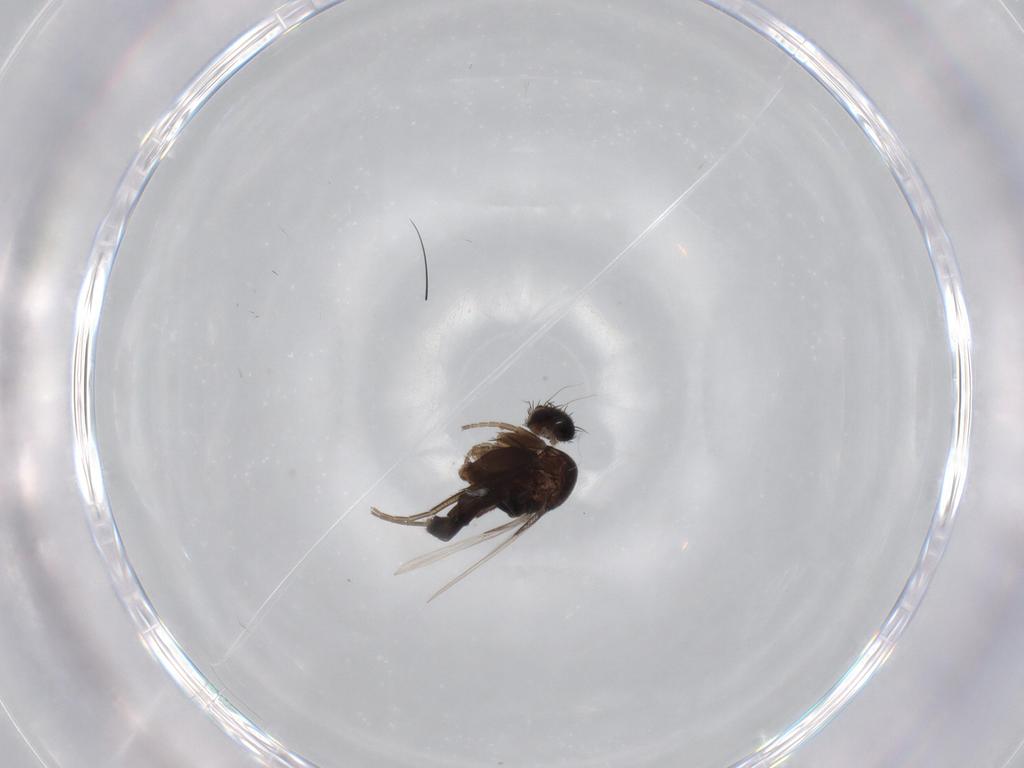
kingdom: Animalia
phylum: Arthropoda
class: Insecta
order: Diptera
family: Phoridae
